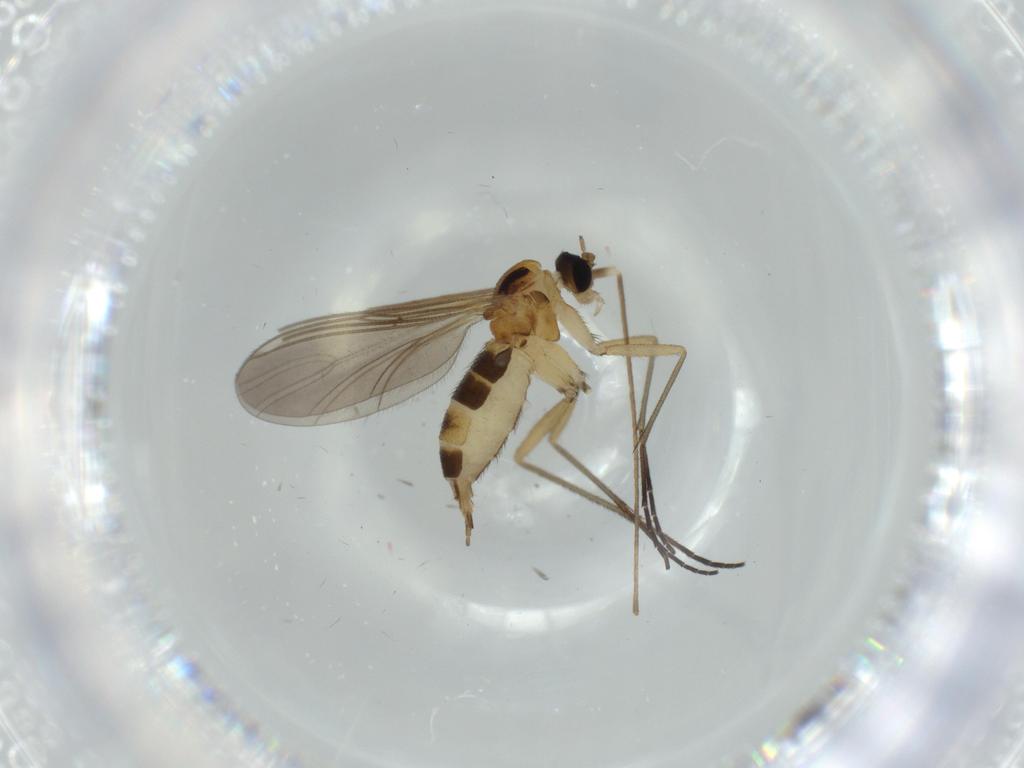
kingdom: Animalia
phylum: Arthropoda
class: Insecta
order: Diptera
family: Sciaridae
